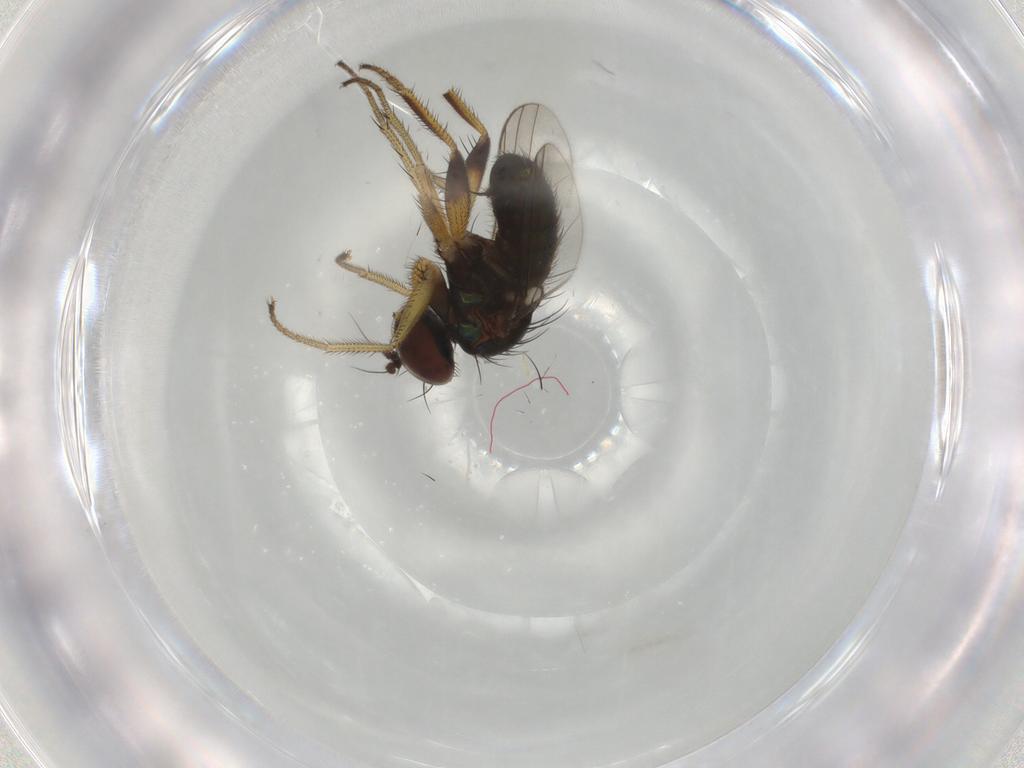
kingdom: Animalia
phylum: Arthropoda
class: Insecta
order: Diptera
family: Dolichopodidae
